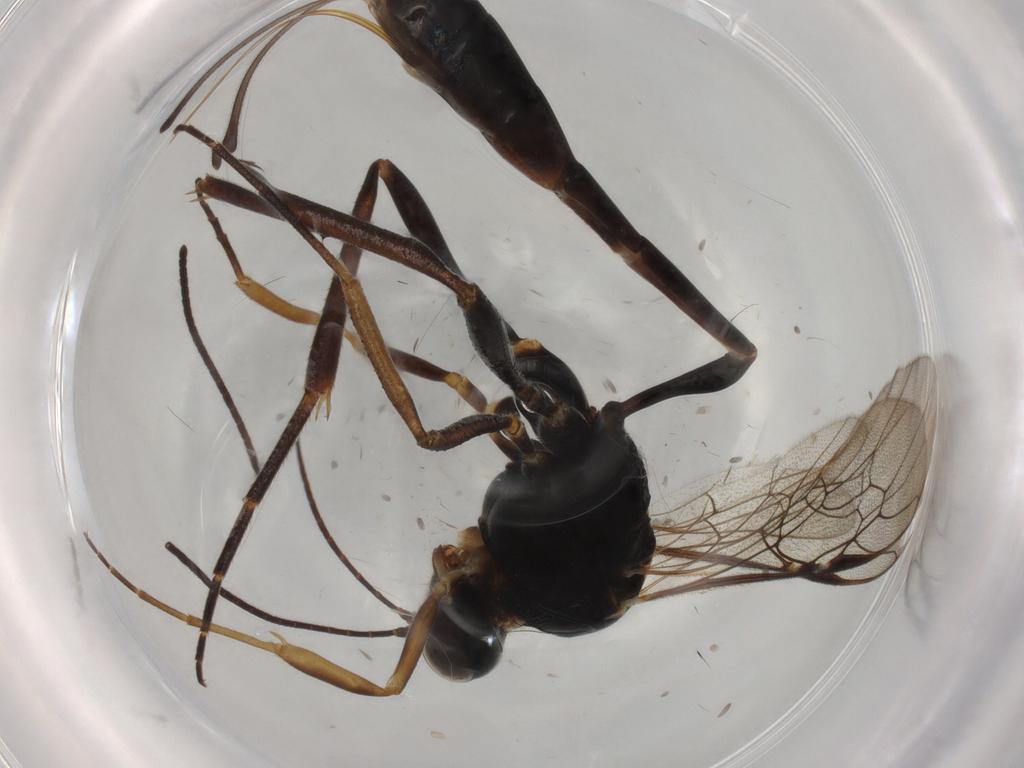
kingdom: Animalia
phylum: Arthropoda
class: Insecta
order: Hymenoptera
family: Ichneumonidae
